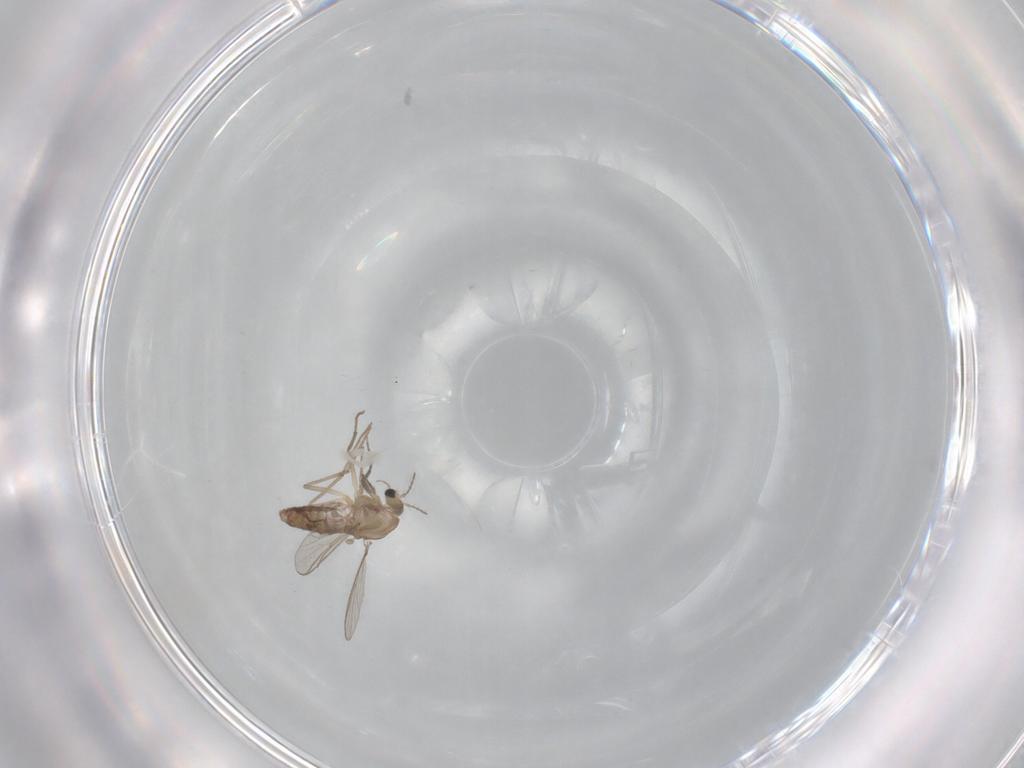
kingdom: Animalia
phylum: Arthropoda
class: Insecta
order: Diptera
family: Chironomidae
